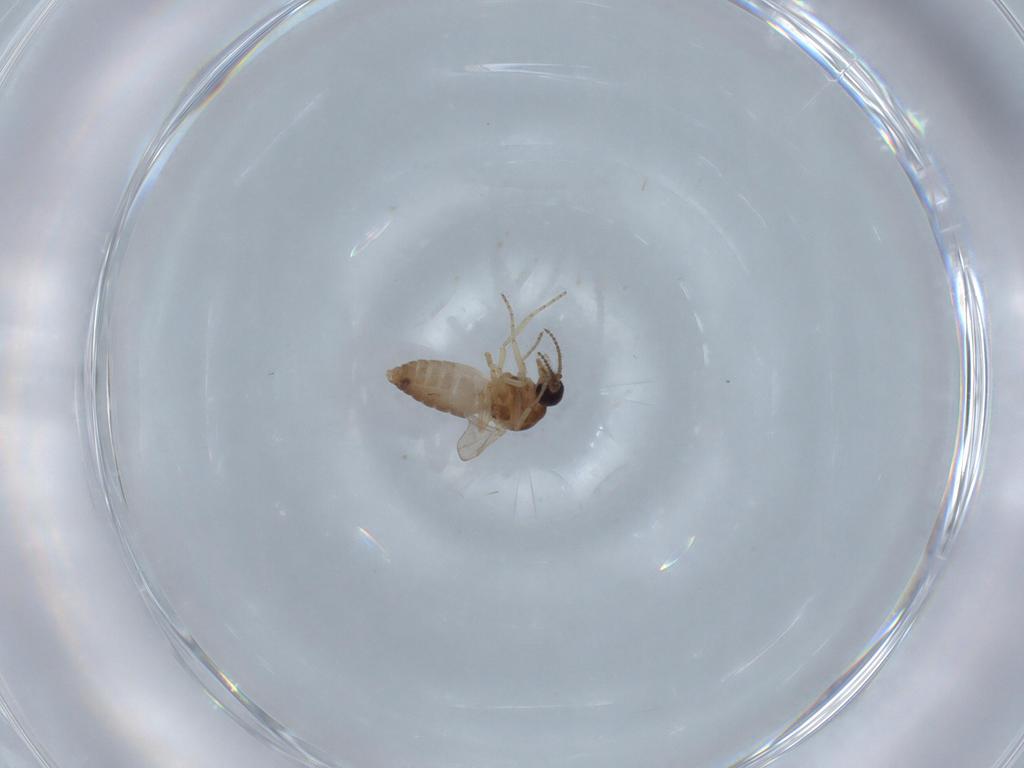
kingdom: Animalia
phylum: Arthropoda
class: Insecta
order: Diptera
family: Ceratopogonidae
